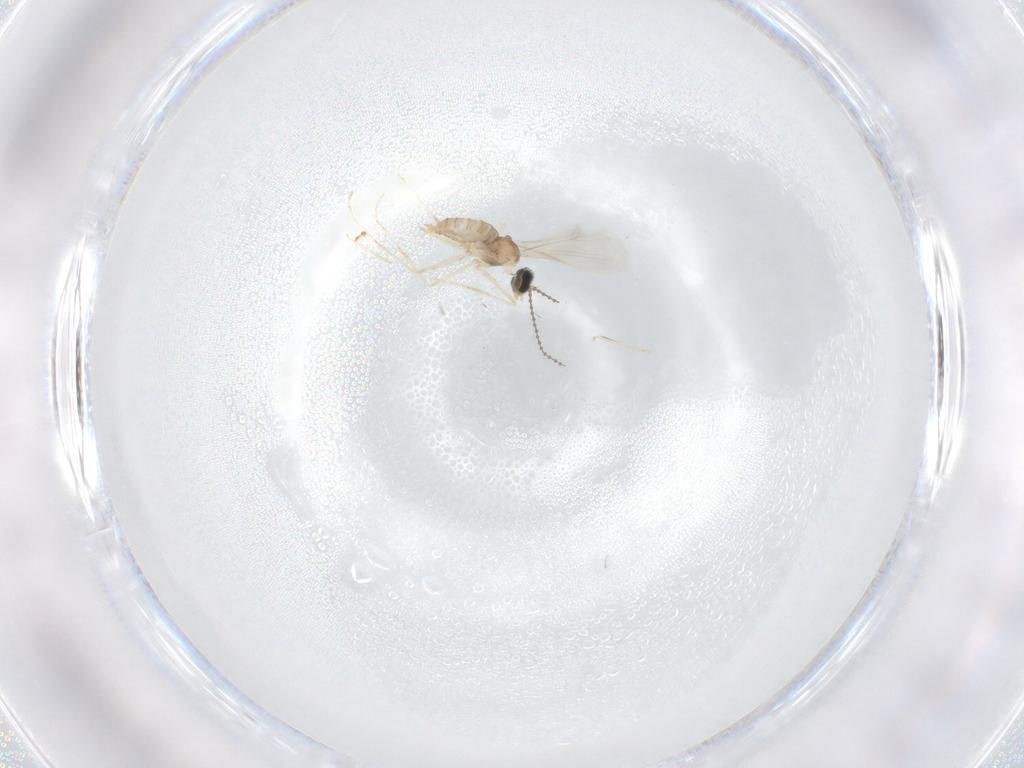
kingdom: Animalia
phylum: Arthropoda
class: Insecta
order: Diptera
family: Cecidomyiidae
